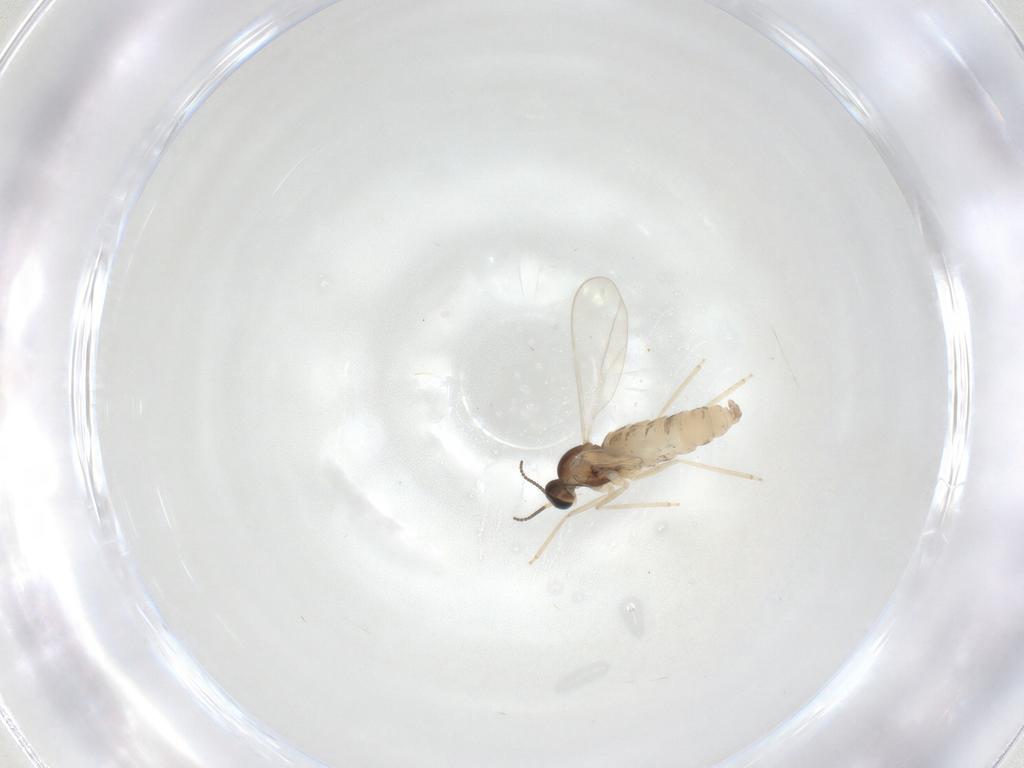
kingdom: Animalia
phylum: Arthropoda
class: Insecta
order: Diptera
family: Cecidomyiidae
